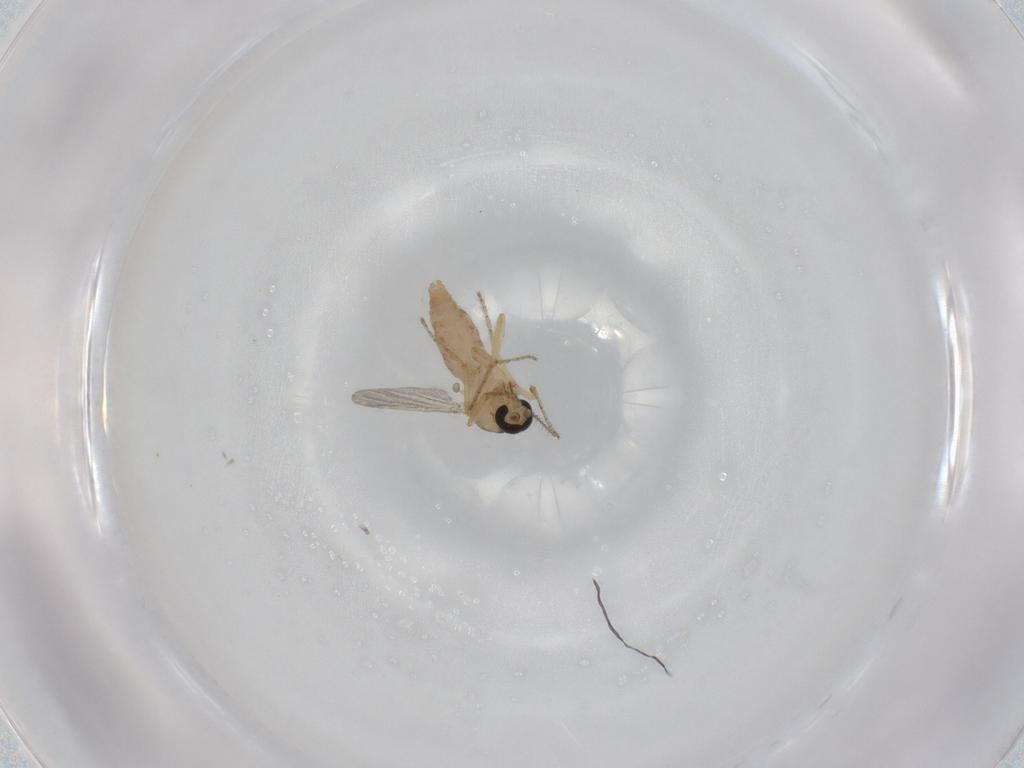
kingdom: Animalia
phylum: Arthropoda
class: Insecta
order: Diptera
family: Ceratopogonidae
